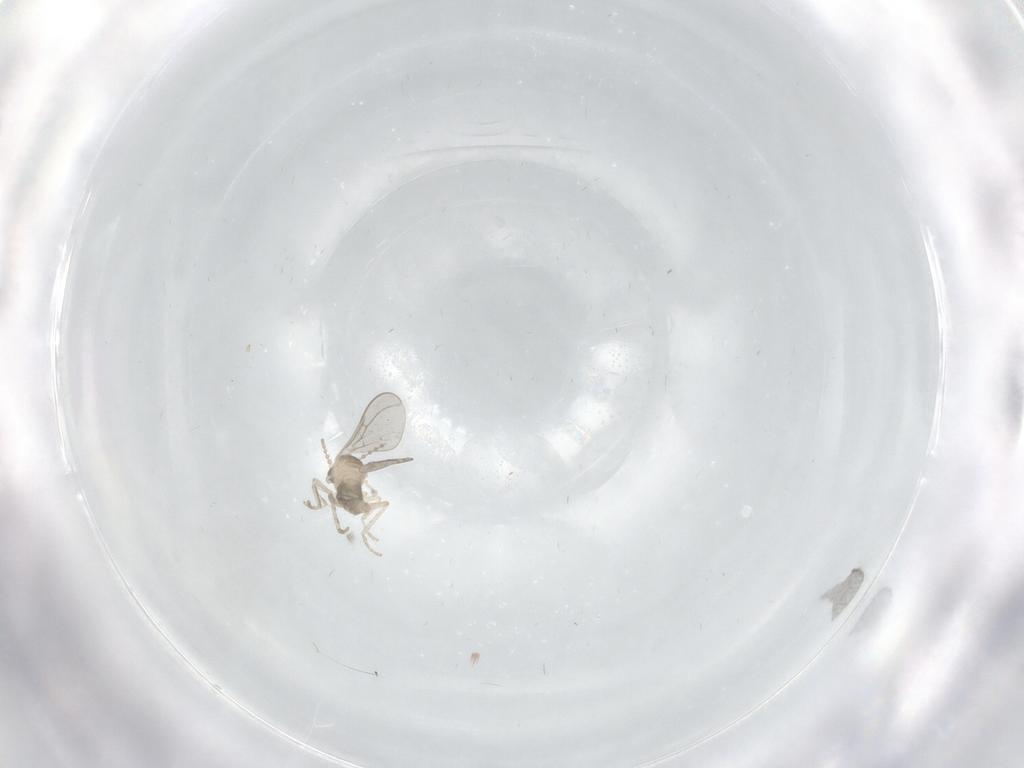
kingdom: Animalia
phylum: Arthropoda
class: Insecta
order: Diptera
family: Cecidomyiidae
